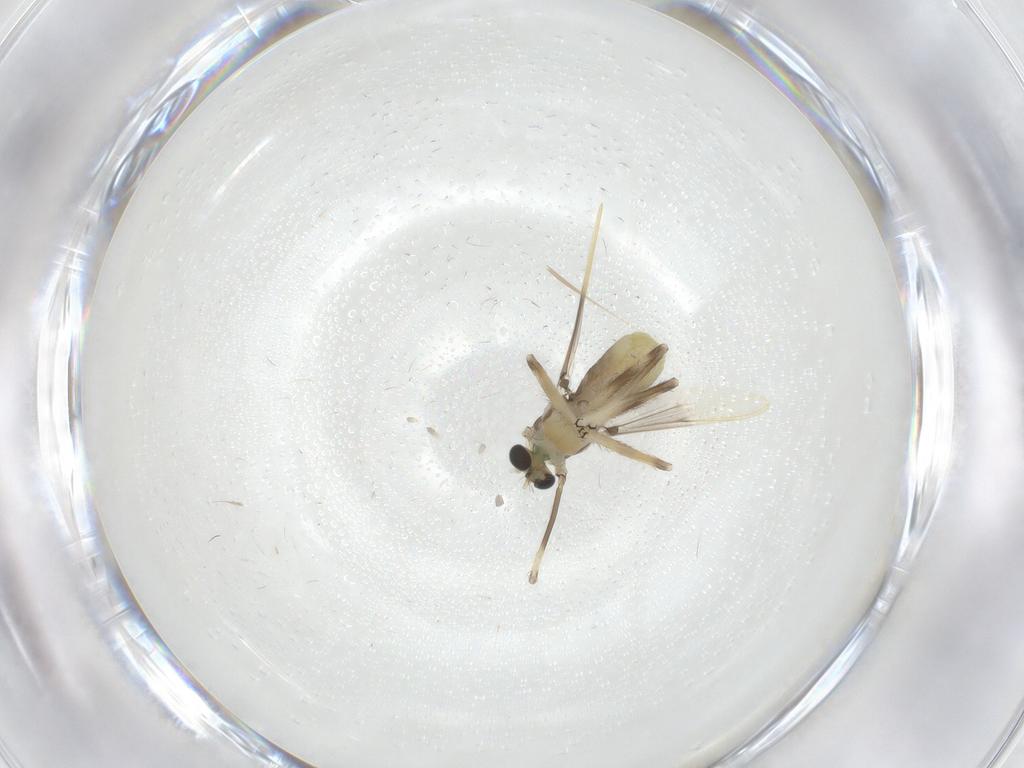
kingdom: Animalia
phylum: Arthropoda
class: Insecta
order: Diptera
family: Chironomidae
